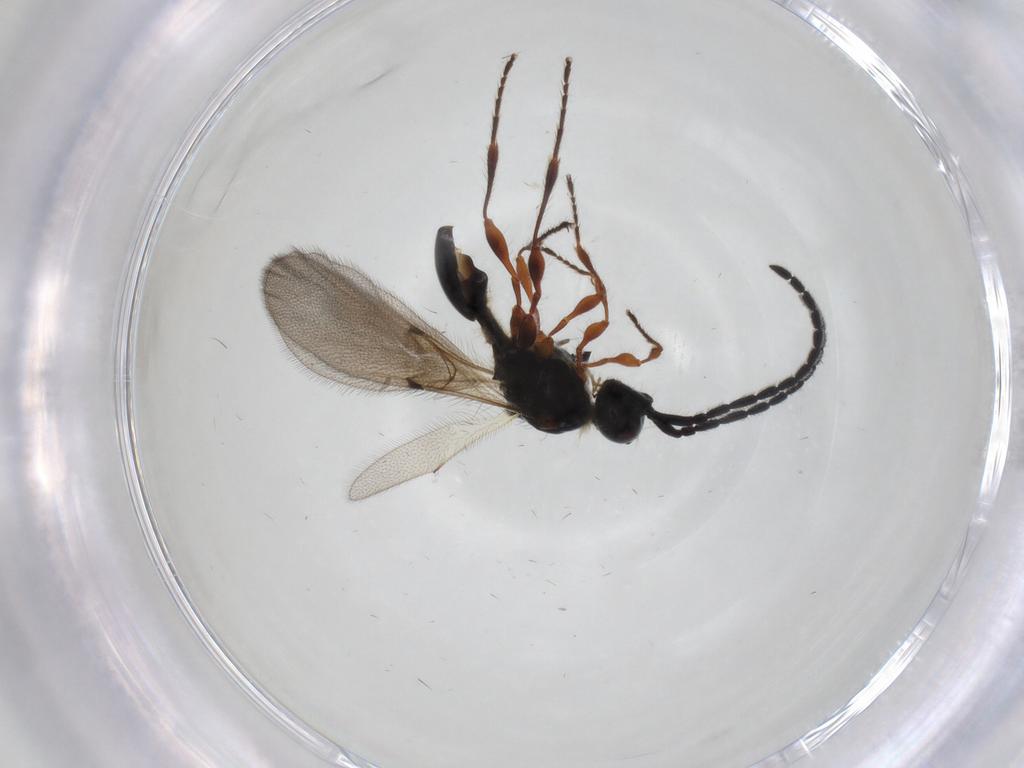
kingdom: Animalia
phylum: Arthropoda
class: Insecta
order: Hymenoptera
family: Diapriidae
